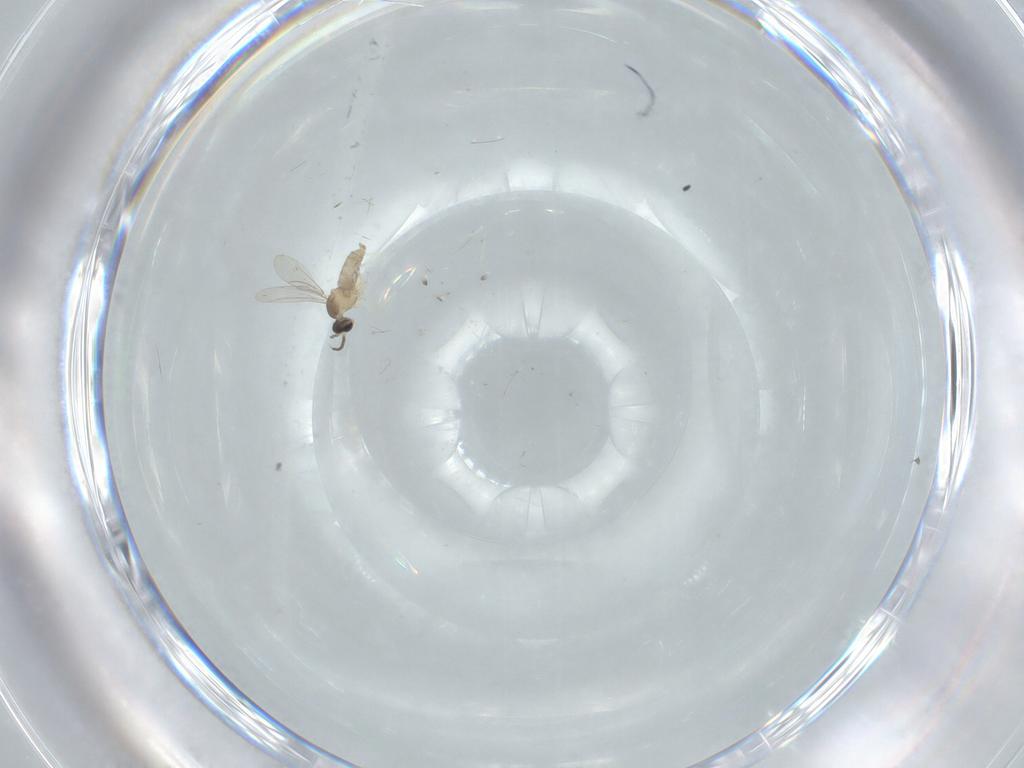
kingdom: Animalia
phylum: Arthropoda
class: Insecta
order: Diptera
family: Cecidomyiidae
